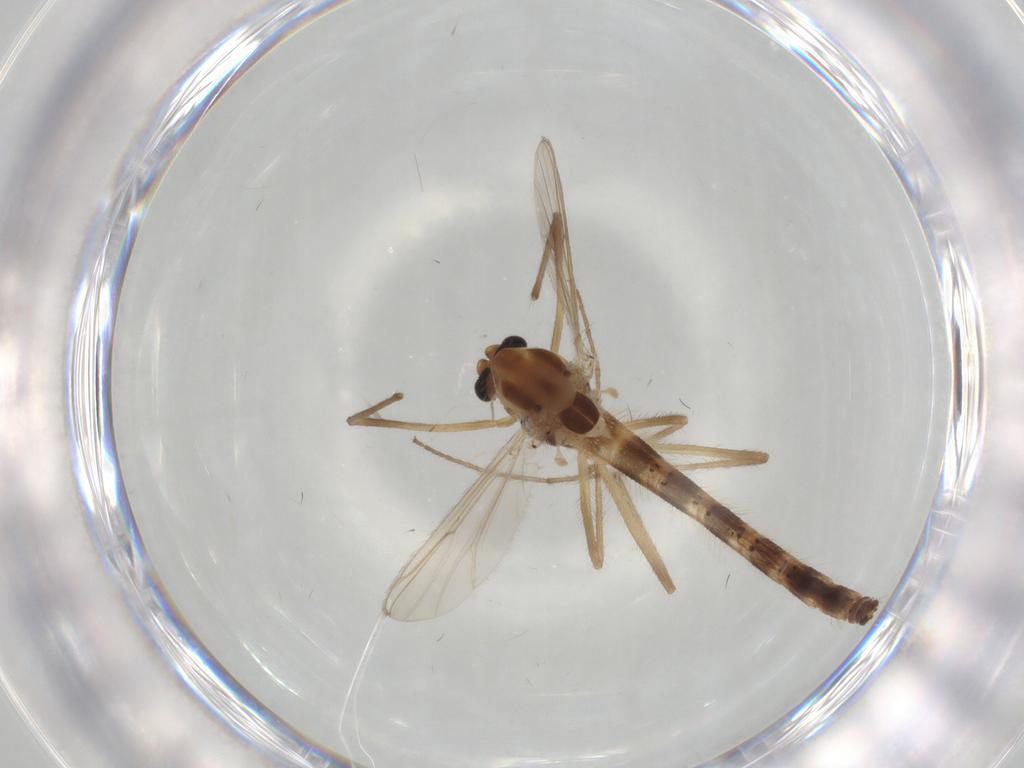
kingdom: Animalia
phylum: Arthropoda
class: Insecta
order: Diptera
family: Chironomidae
